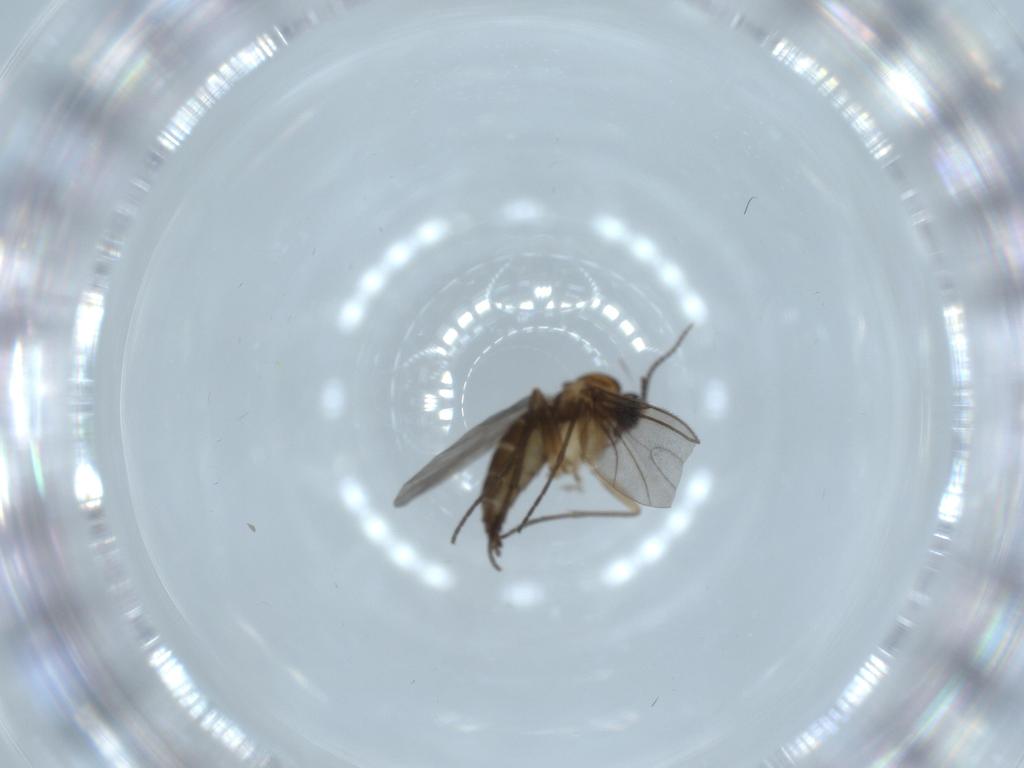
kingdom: Animalia
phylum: Arthropoda
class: Insecta
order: Diptera
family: Sciaridae
